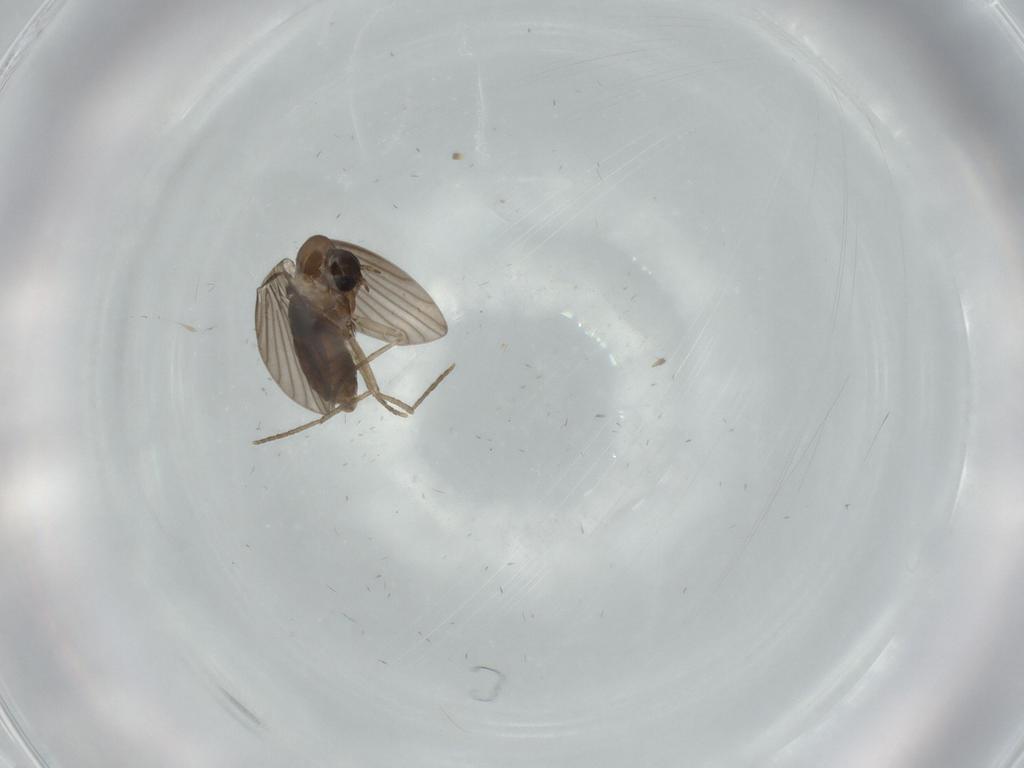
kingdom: Animalia
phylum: Arthropoda
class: Insecta
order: Diptera
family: Psychodidae
